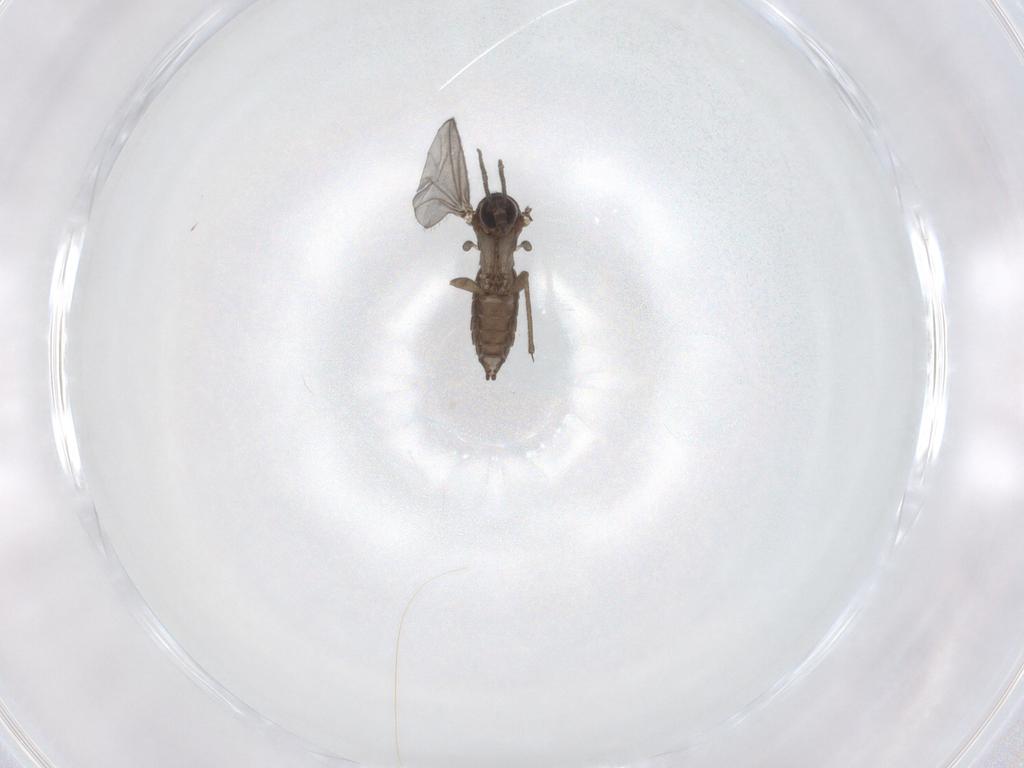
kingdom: Animalia
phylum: Arthropoda
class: Insecta
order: Diptera
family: Sciaridae
